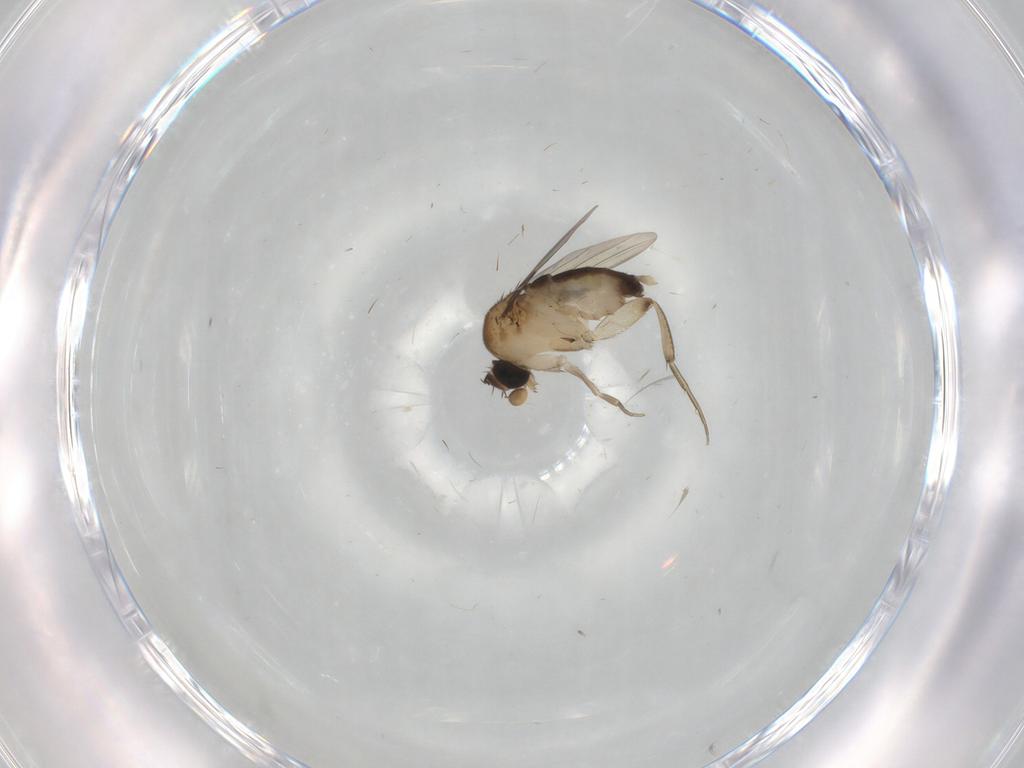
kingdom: Animalia
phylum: Arthropoda
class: Insecta
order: Diptera
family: Phoridae
